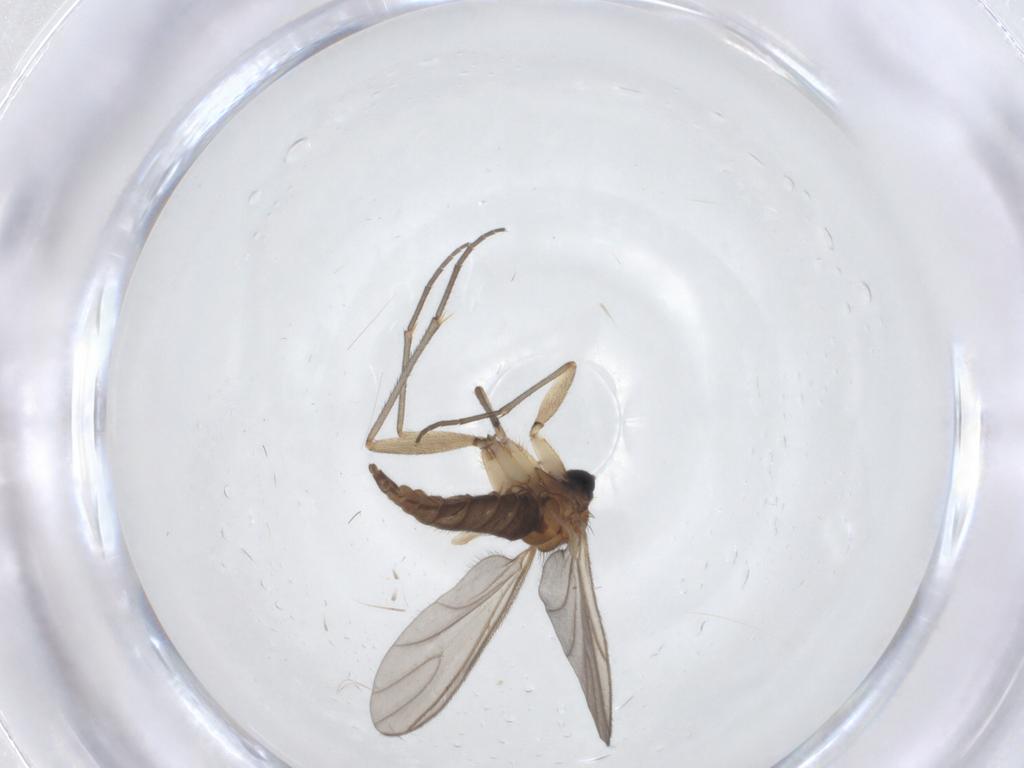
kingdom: Animalia
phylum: Arthropoda
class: Insecta
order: Diptera
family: Sciaridae
